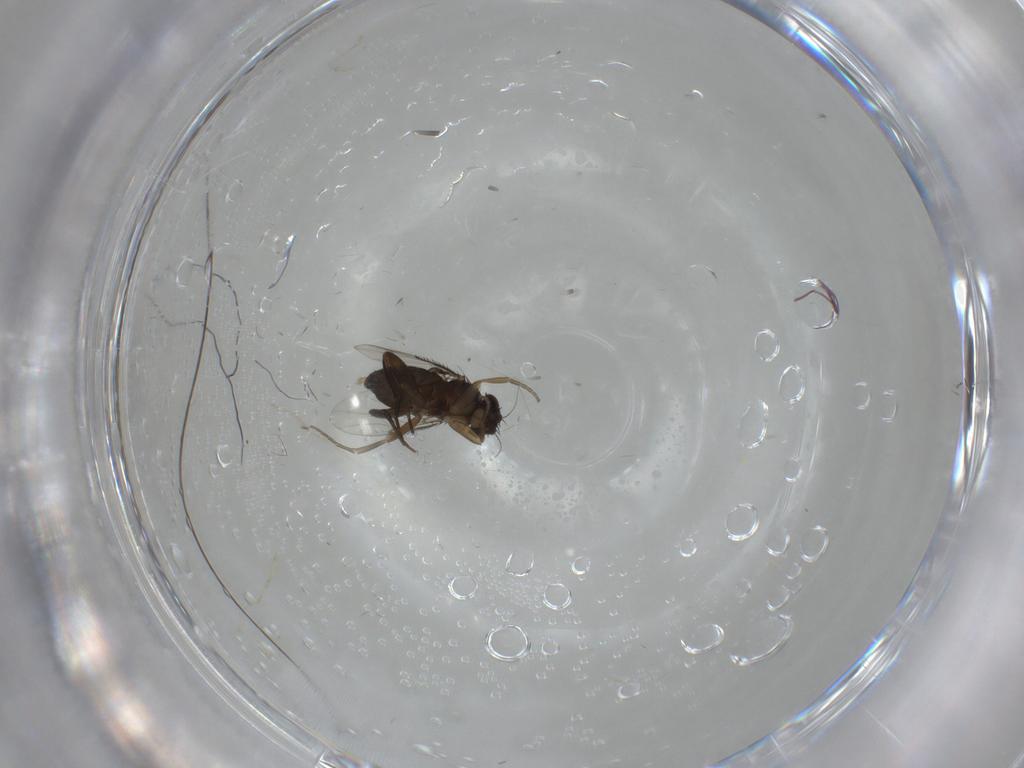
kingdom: Animalia
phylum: Arthropoda
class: Insecta
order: Diptera
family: Phoridae
